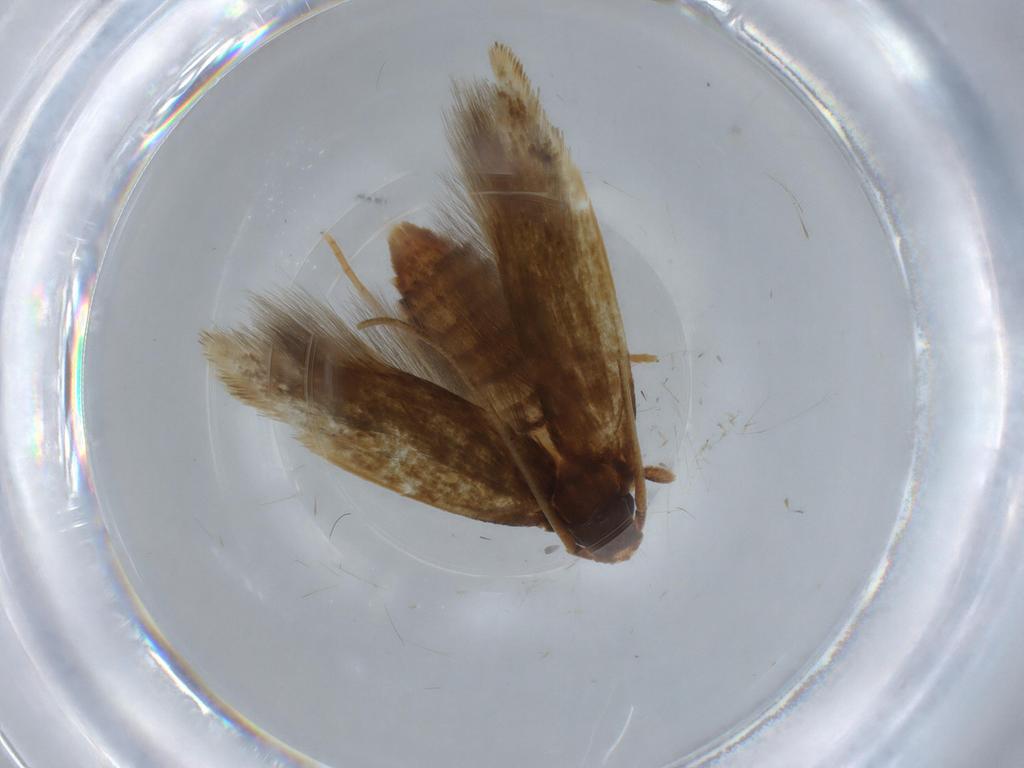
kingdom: Animalia
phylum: Arthropoda
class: Insecta
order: Lepidoptera
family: Tineidae
